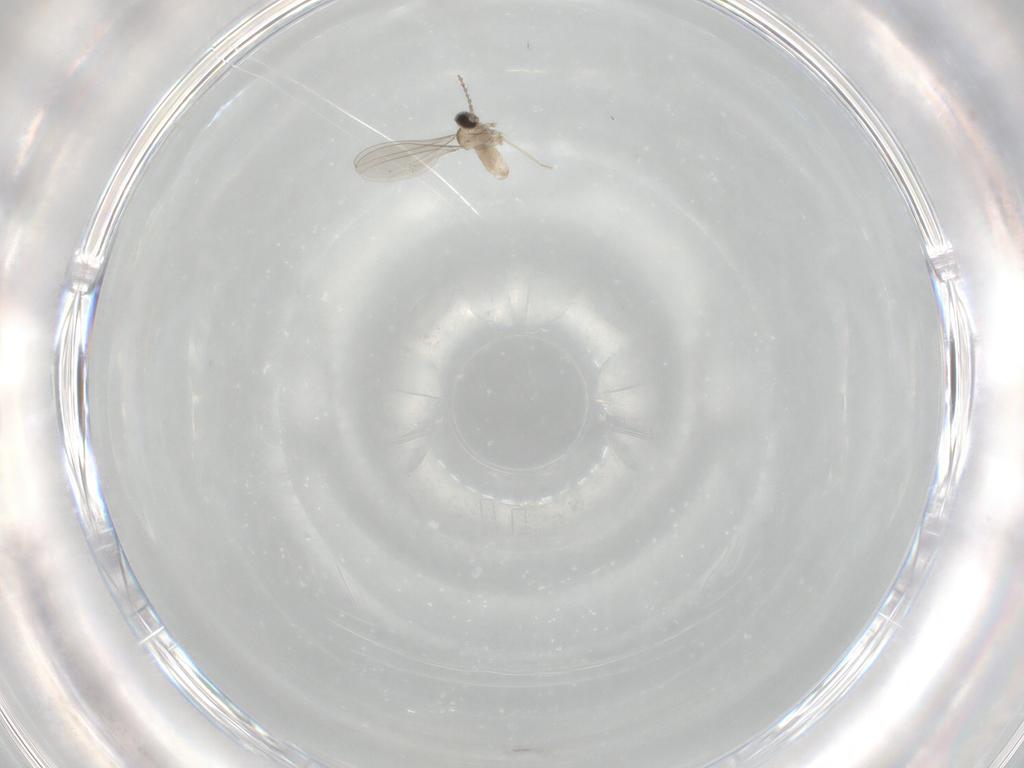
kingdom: Animalia
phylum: Arthropoda
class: Insecta
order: Diptera
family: Cecidomyiidae
